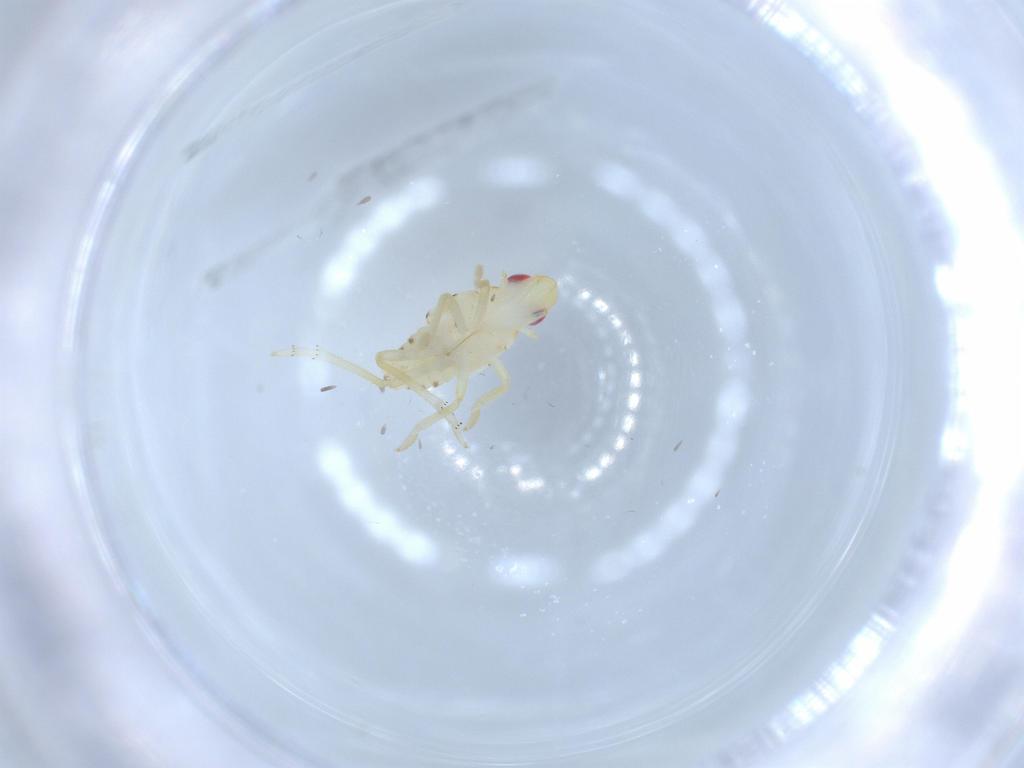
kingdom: Animalia
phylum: Arthropoda
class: Insecta
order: Hemiptera
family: Tropiduchidae
